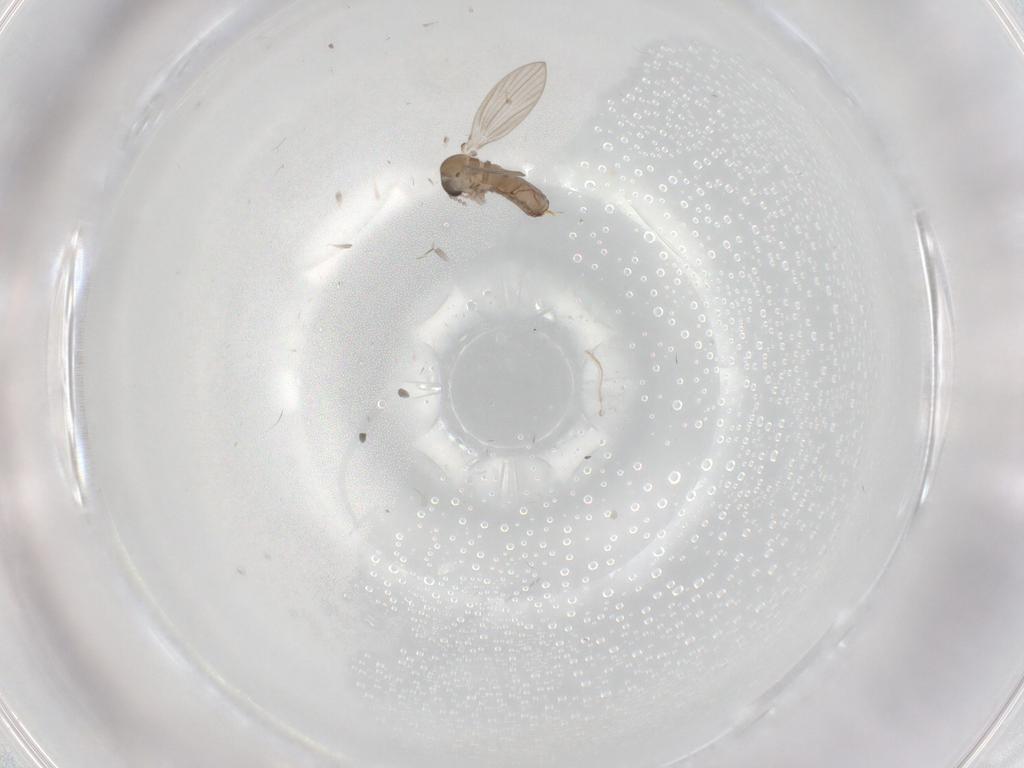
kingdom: Animalia
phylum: Arthropoda
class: Insecta
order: Diptera
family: Psychodidae
